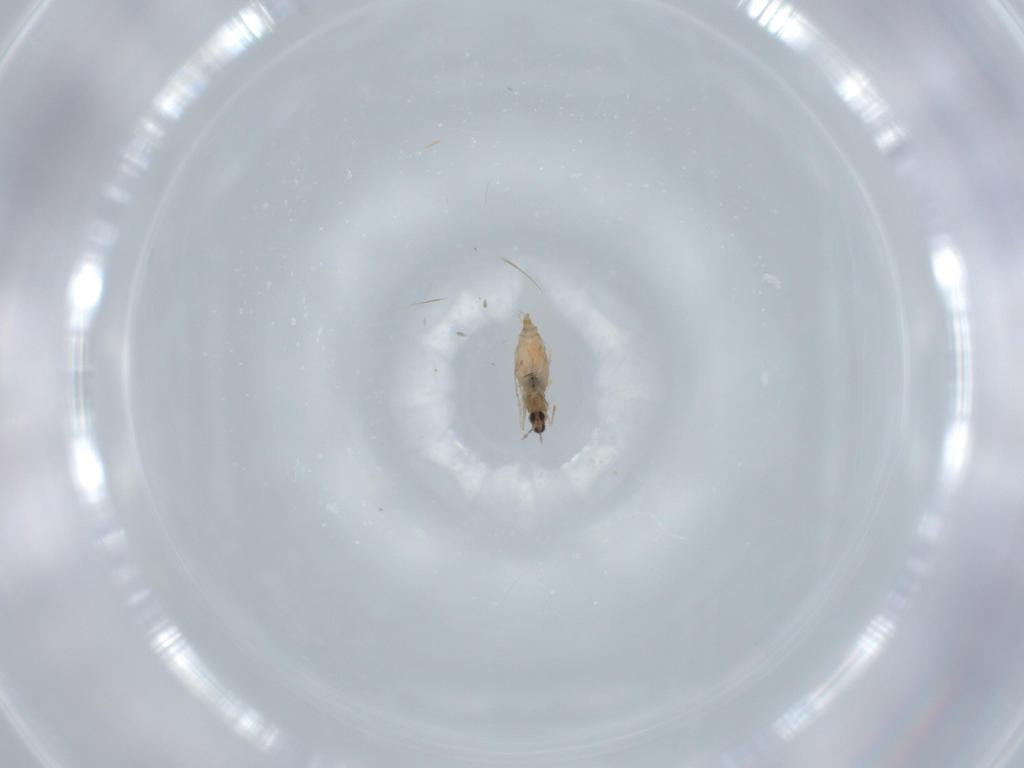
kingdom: Animalia
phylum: Arthropoda
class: Insecta
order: Diptera
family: Cecidomyiidae
